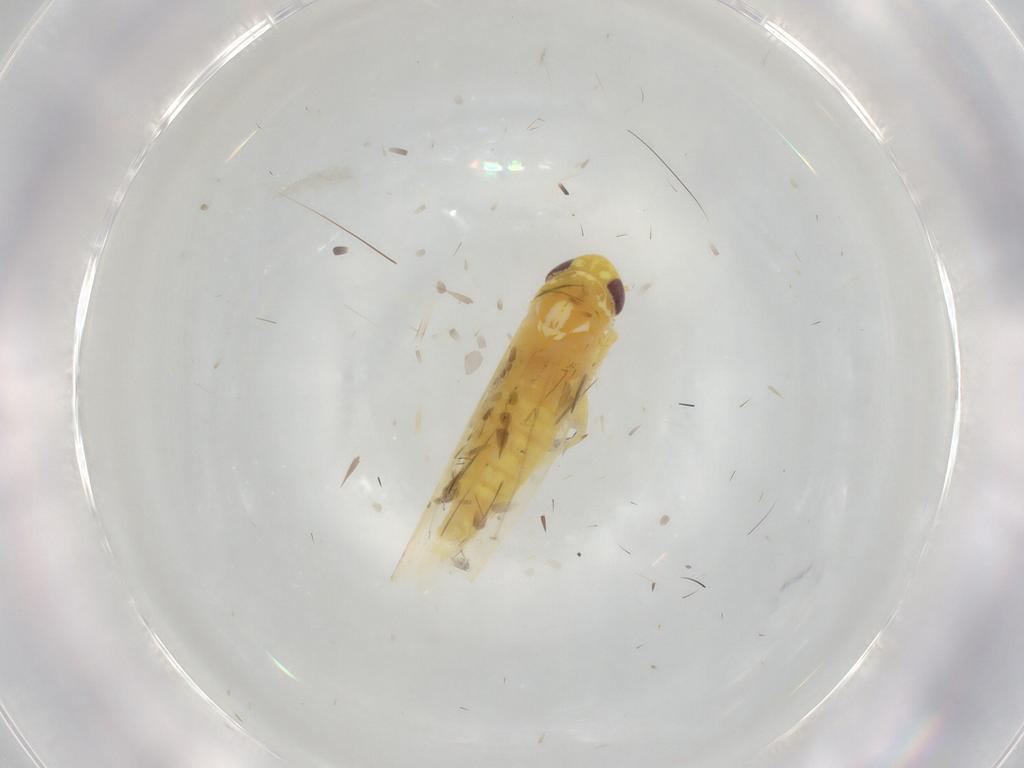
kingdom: Animalia
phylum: Arthropoda
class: Insecta
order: Hemiptera
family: Cicadellidae
